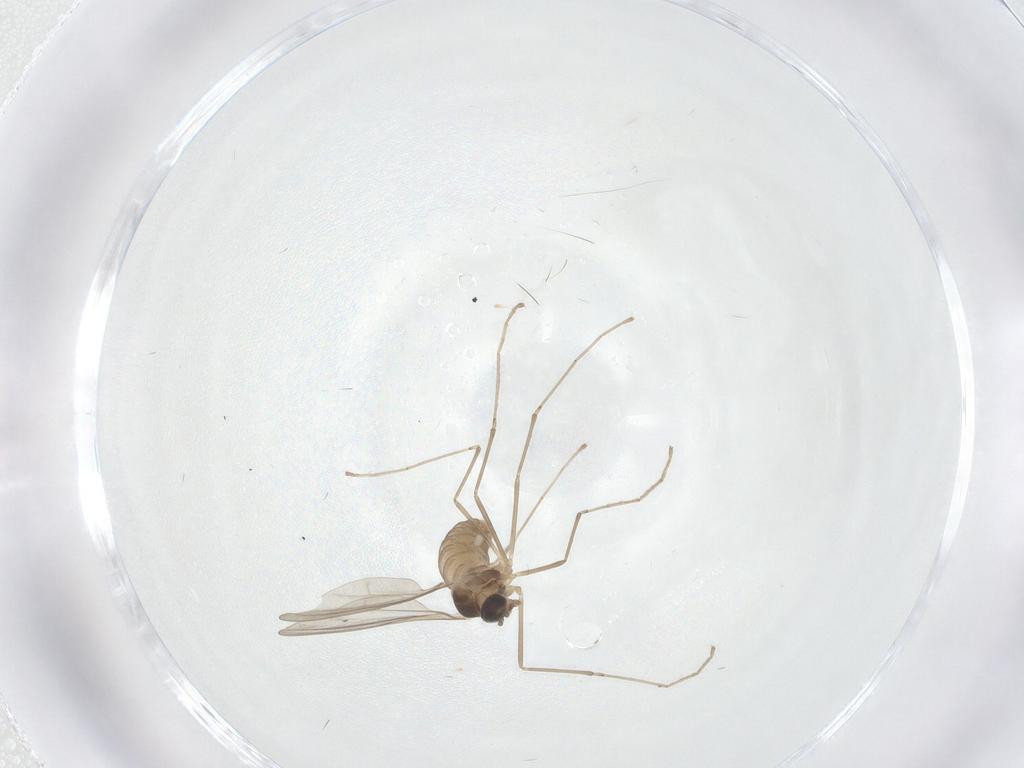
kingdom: Animalia
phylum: Arthropoda
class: Insecta
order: Diptera
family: Cecidomyiidae
